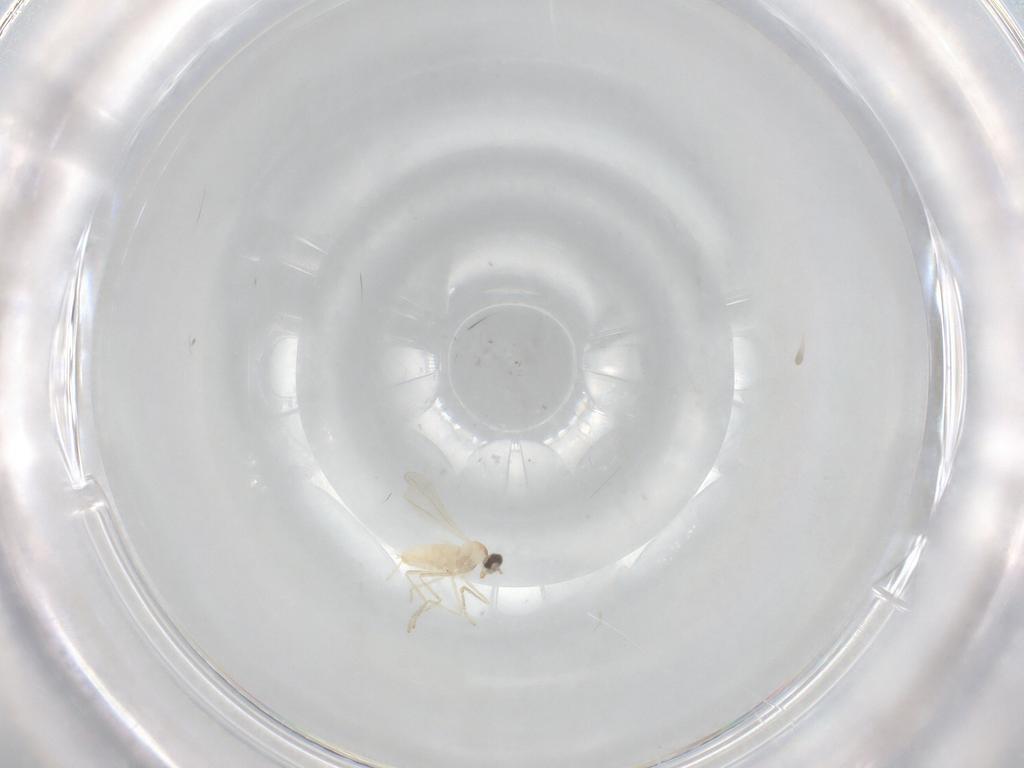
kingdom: Animalia
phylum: Arthropoda
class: Insecta
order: Diptera
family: Cecidomyiidae
